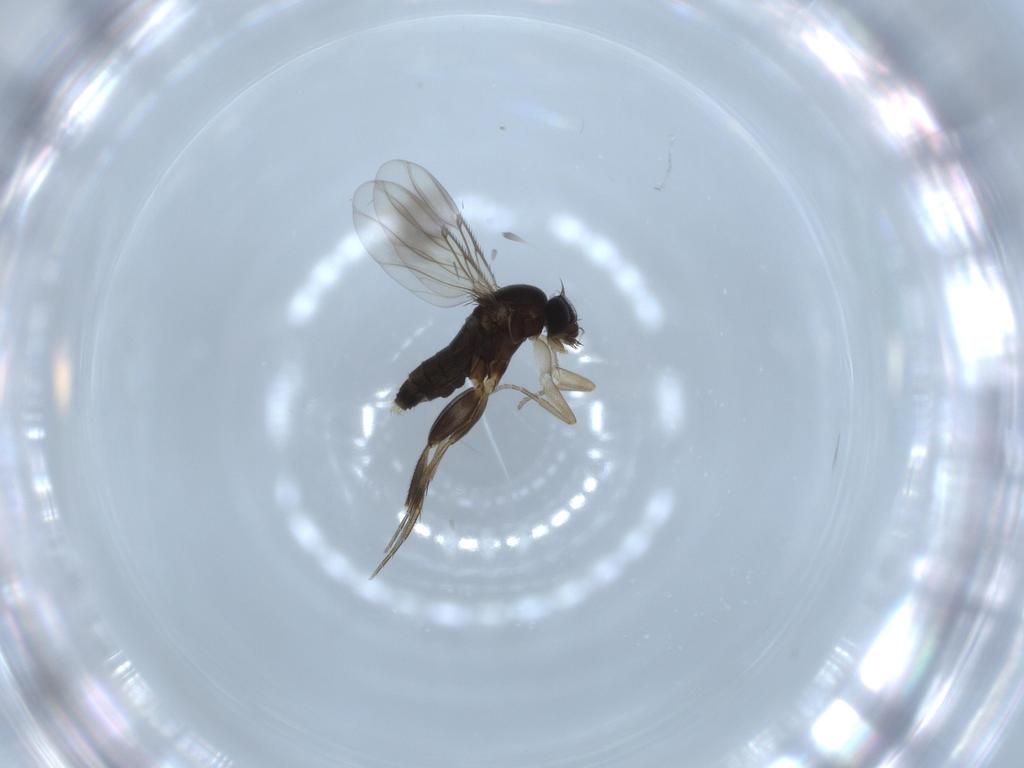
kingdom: Animalia
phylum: Arthropoda
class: Insecta
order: Diptera
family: Phoridae
